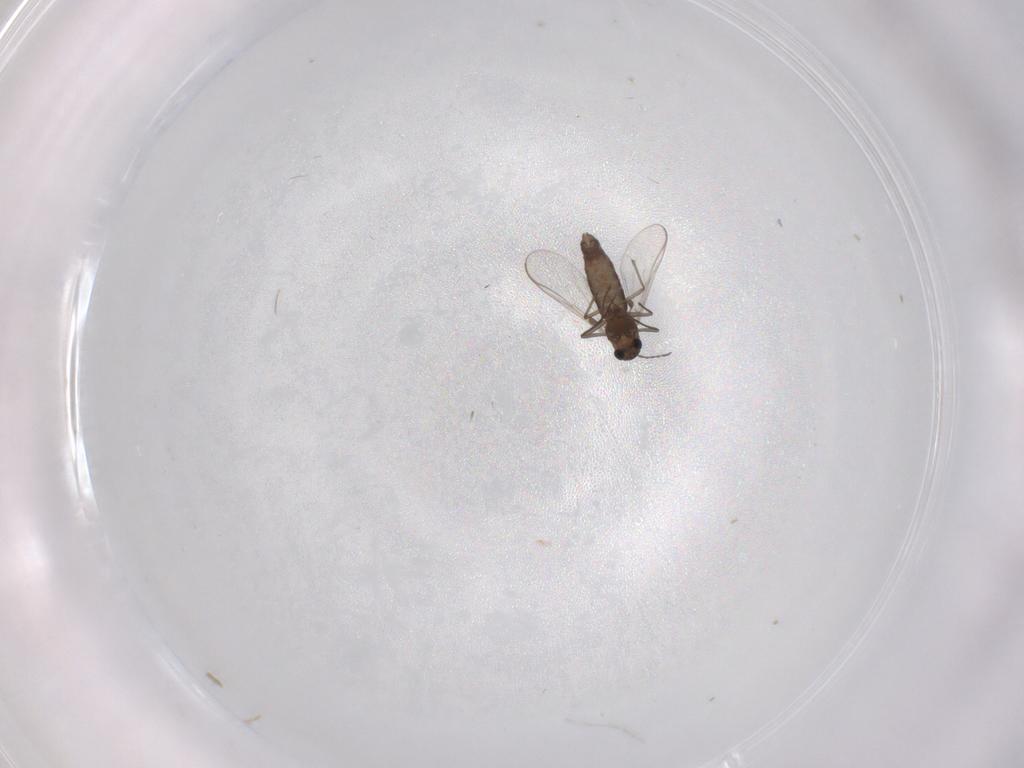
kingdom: Animalia
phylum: Arthropoda
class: Insecta
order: Diptera
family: Chironomidae
